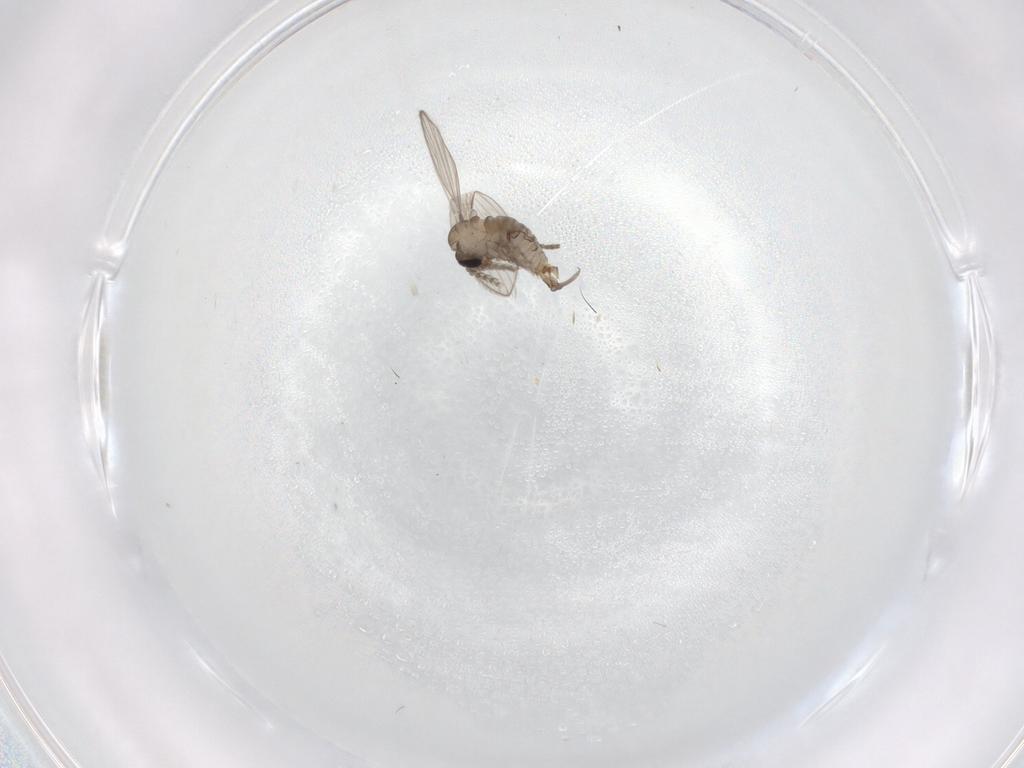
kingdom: Animalia
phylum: Arthropoda
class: Insecta
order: Diptera
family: Psychodidae
